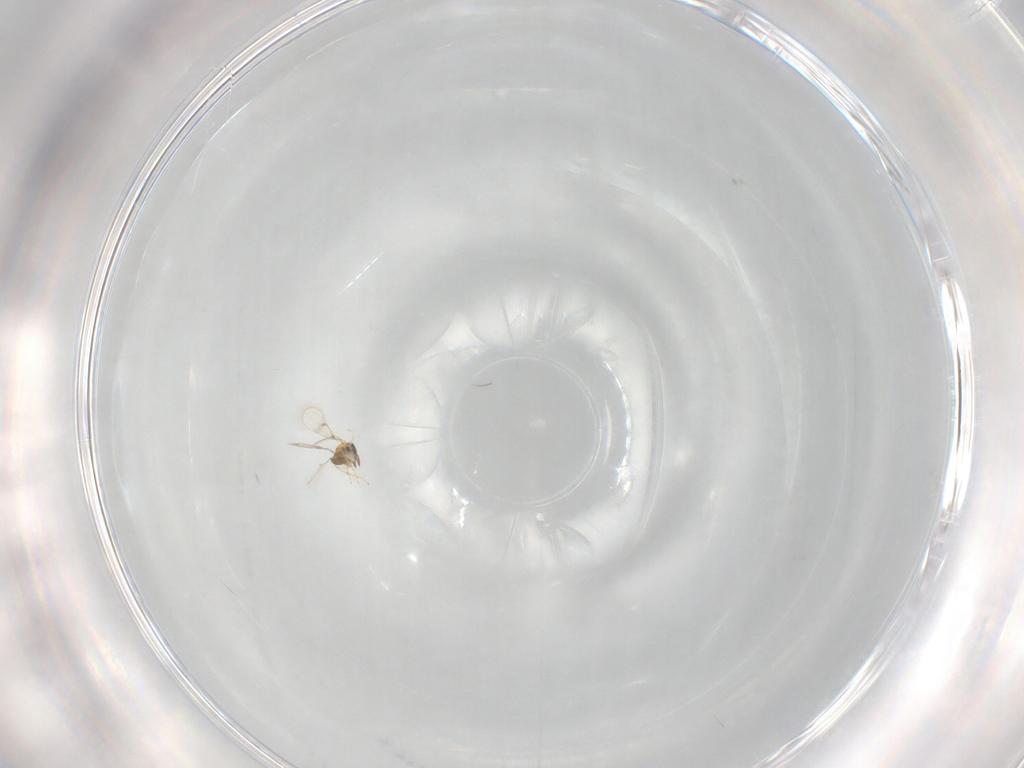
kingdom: Animalia
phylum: Arthropoda
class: Insecta
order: Hymenoptera
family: Trichogrammatidae
